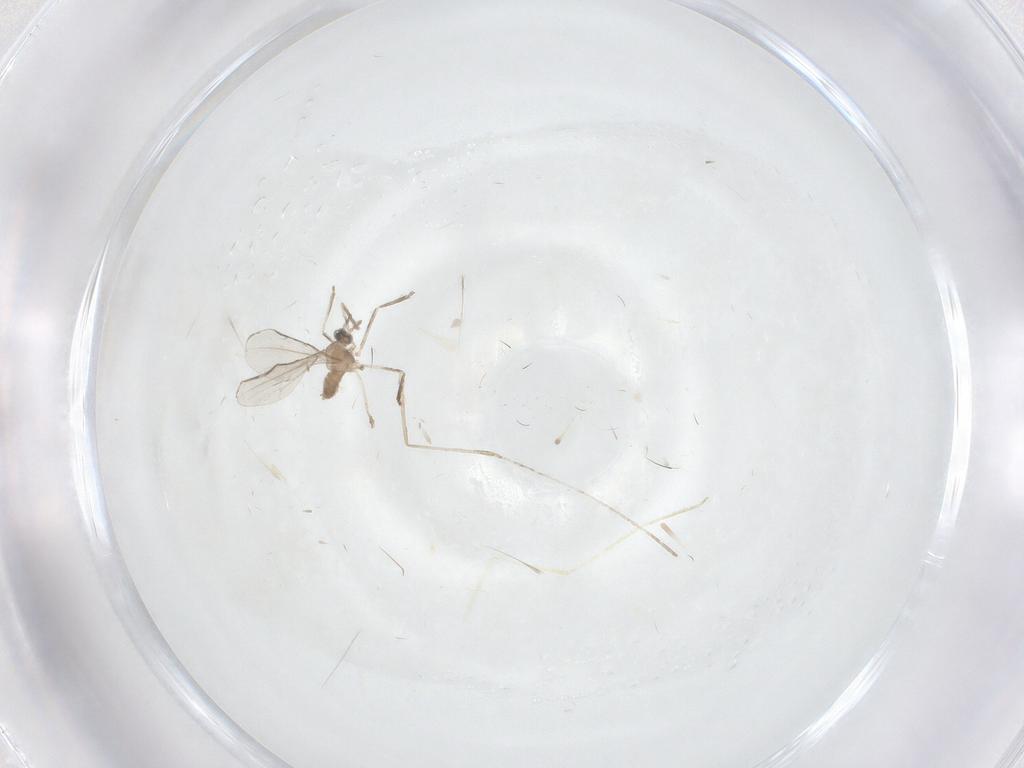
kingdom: Animalia
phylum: Arthropoda
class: Insecta
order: Diptera
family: Cecidomyiidae
